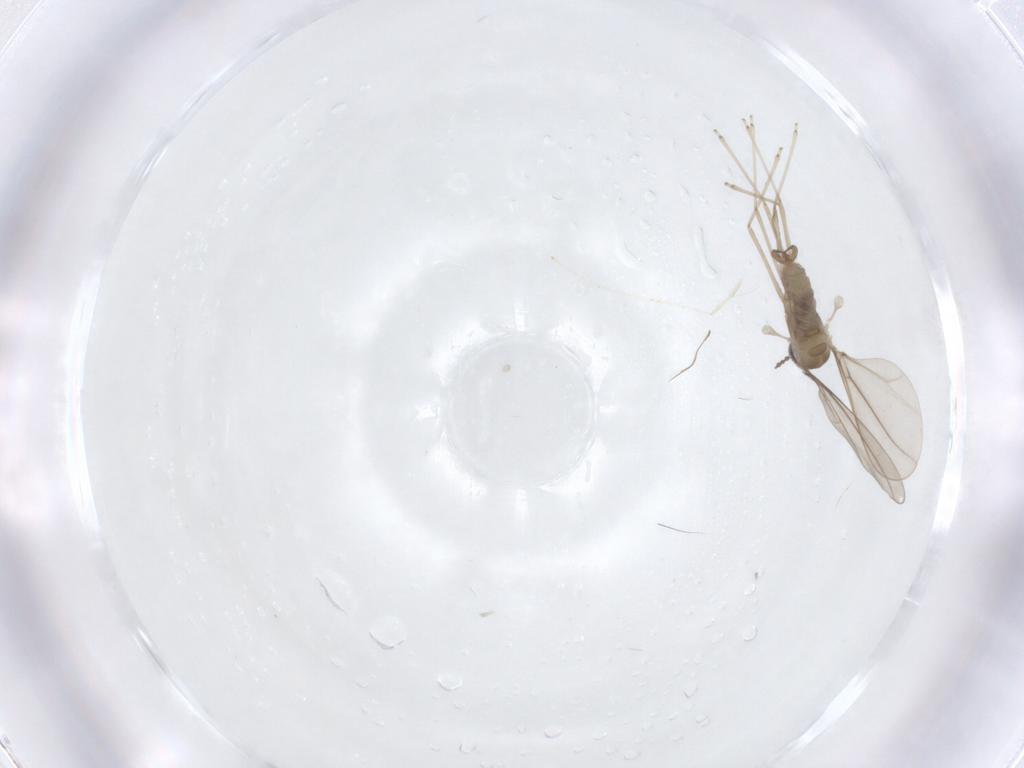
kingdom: Animalia
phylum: Arthropoda
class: Insecta
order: Diptera
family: Cecidomyiidae
